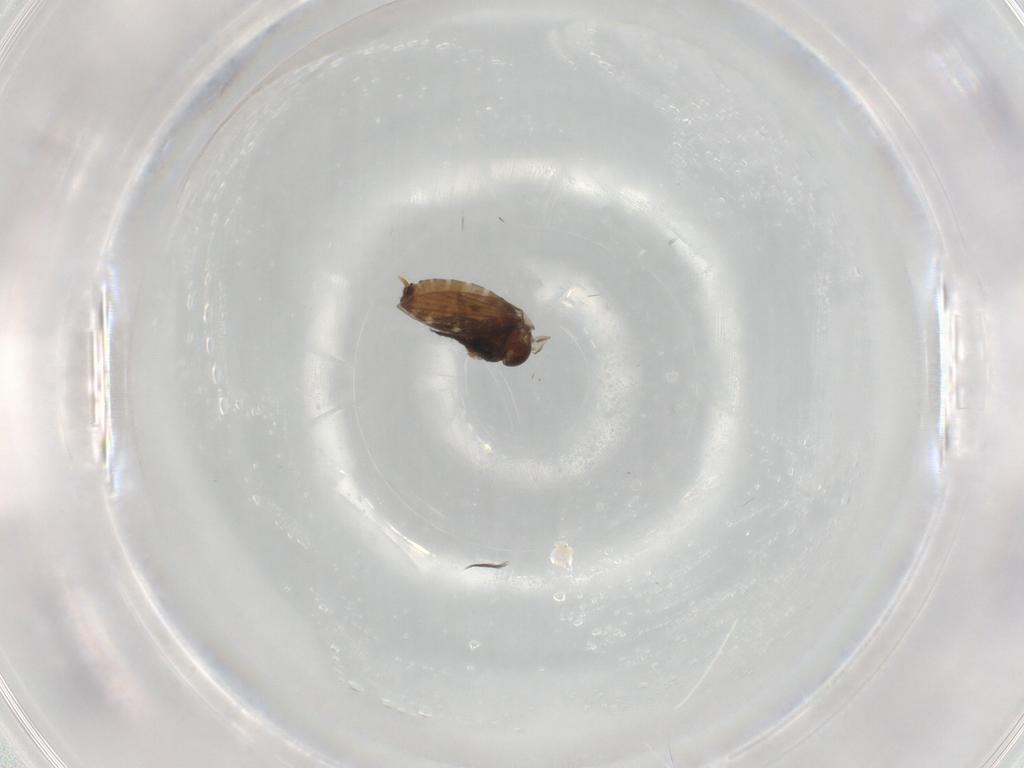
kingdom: Animalia
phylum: Arthropoda
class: Insecta
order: Diptera
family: Psychodidae
